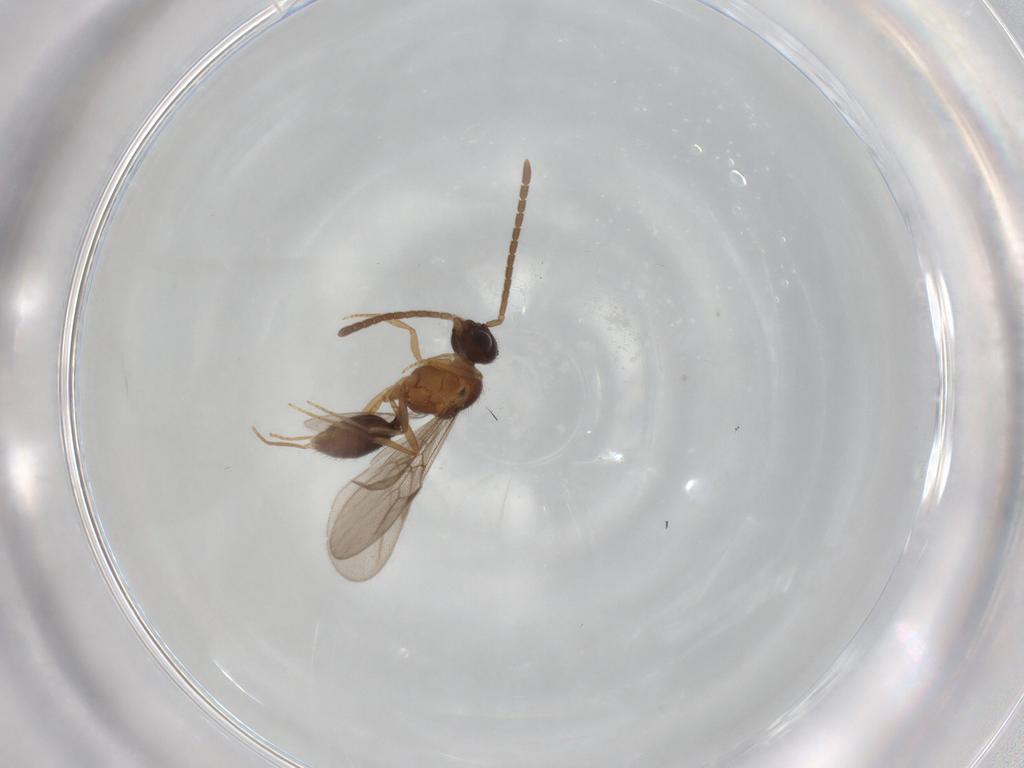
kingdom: Animalia
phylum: Arthropoda
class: Insecta
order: Hymenoptera
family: Formicidae
